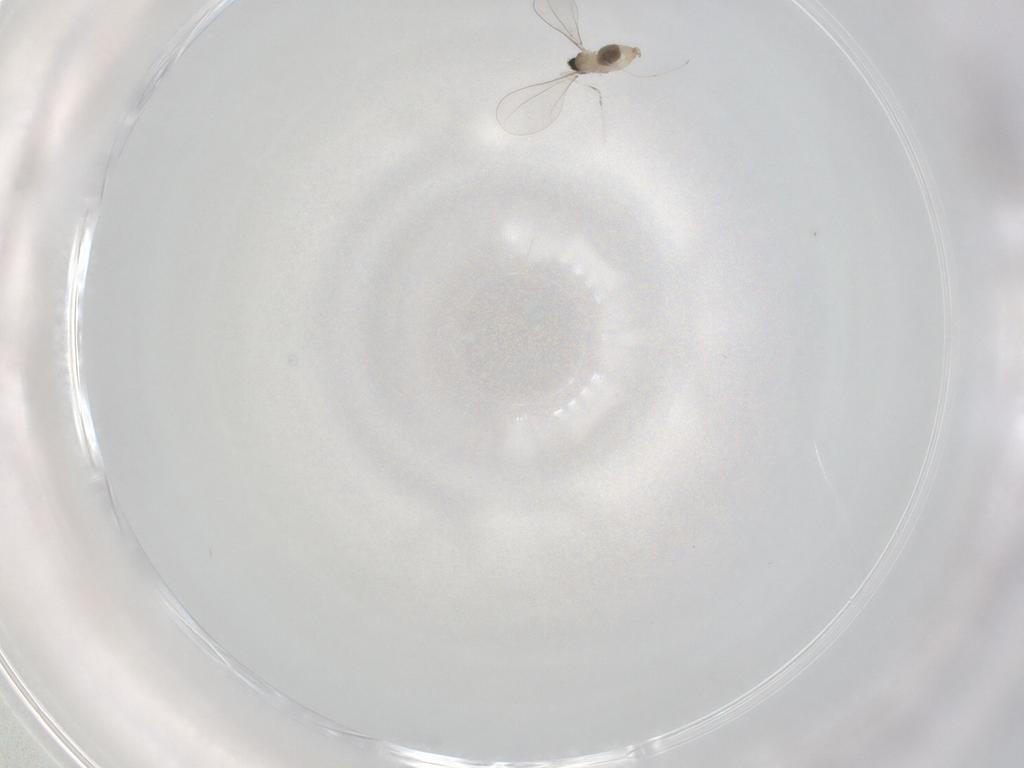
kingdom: Animalia
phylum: Arthropoda
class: Insecta
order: Diptera
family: Cecidomyiidae
